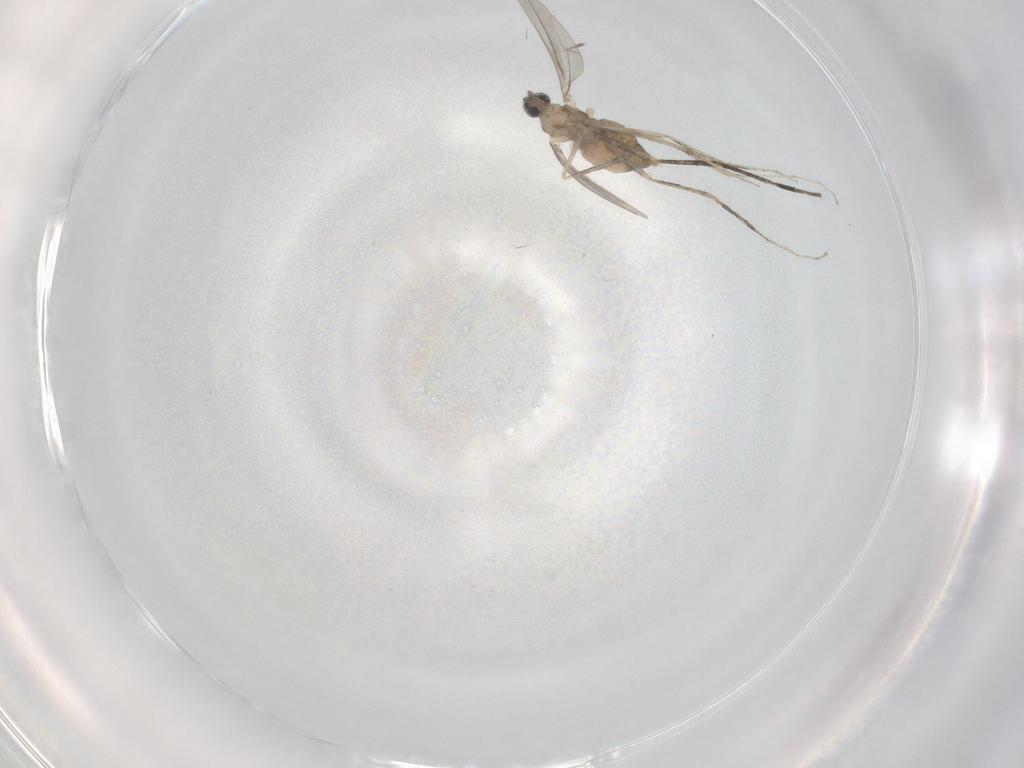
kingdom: Animalia
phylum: Arthropoda
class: Insecta
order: Diptera
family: Cecidomyiidae
